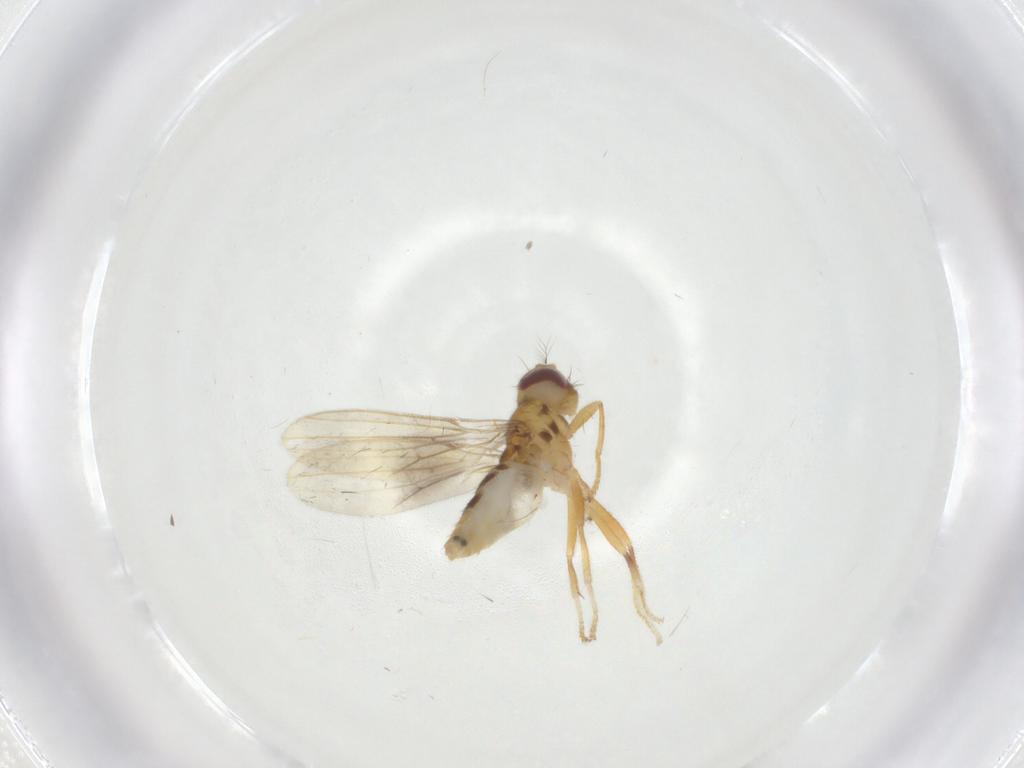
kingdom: Animalia
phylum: Arthropoda
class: Insecta
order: Diptera
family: Periscelididae
